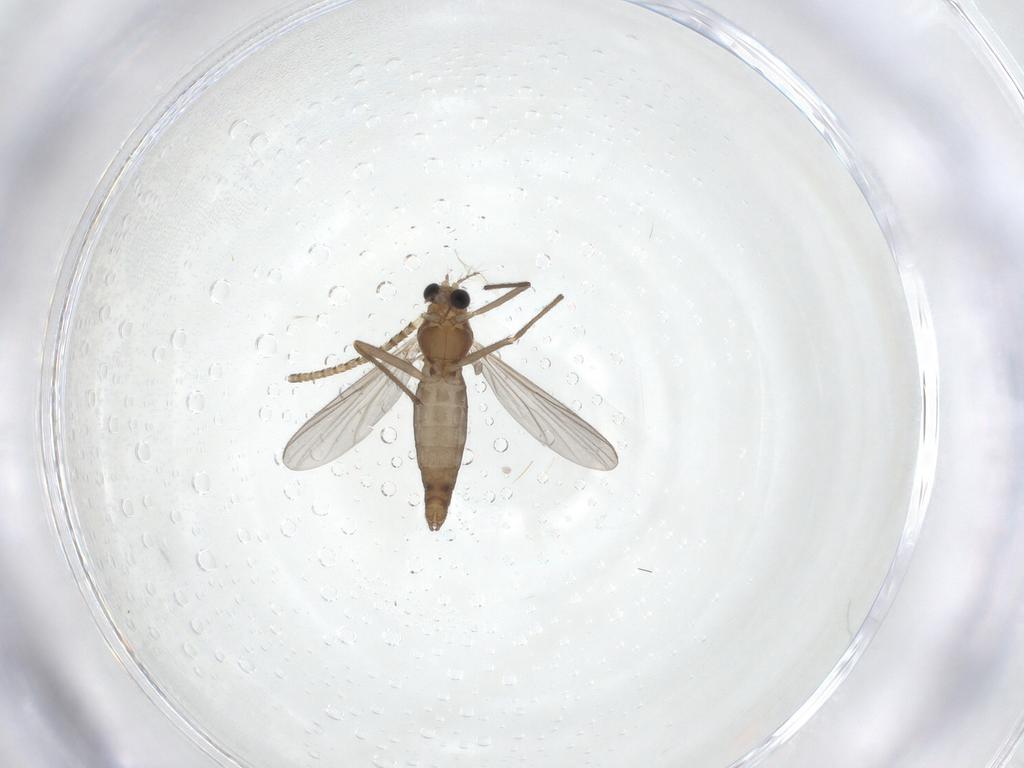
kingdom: Animalia
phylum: Arthropoda
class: Insecta
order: Diptera
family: Chironomidae
